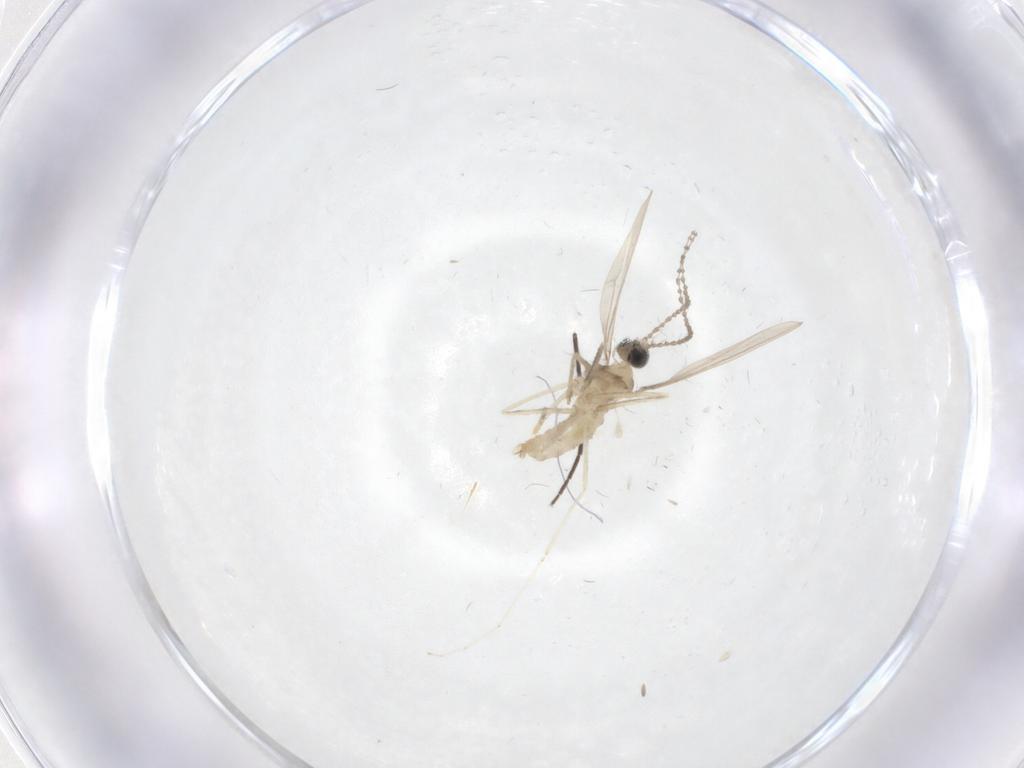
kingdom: Animalia
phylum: Arthropoda
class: Insecta
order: Diptera
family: Cecidomyiidae
